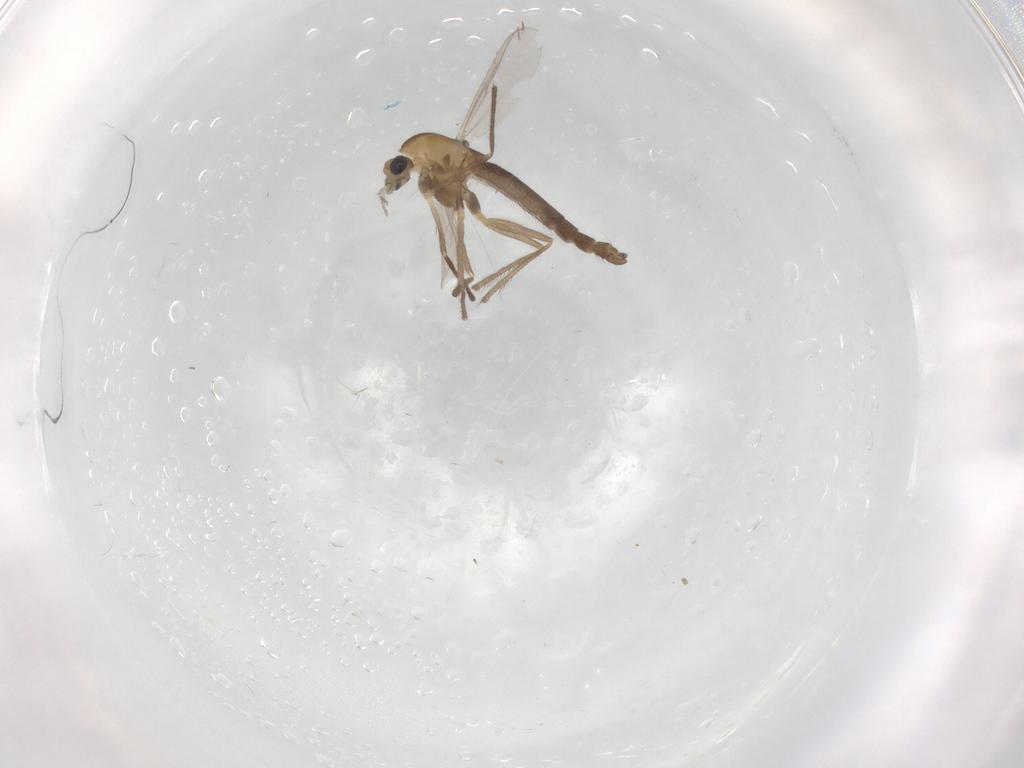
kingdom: Animalia
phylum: Arthropoda
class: Insecta
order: Diptera
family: Chironomidae
